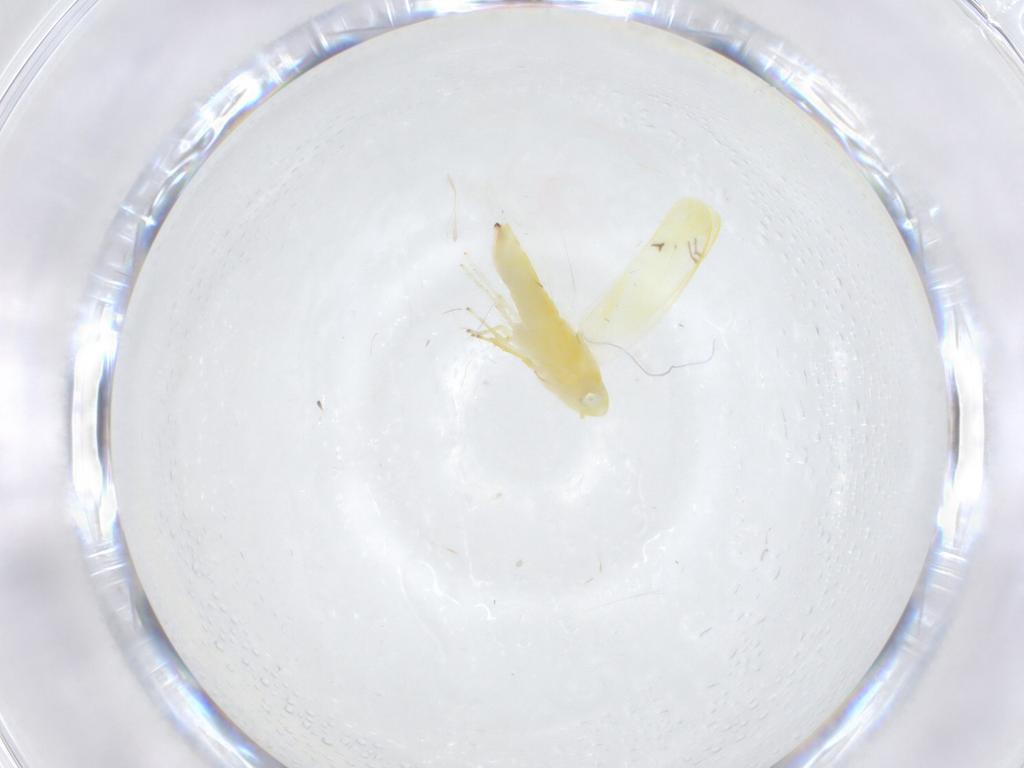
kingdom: Animalia
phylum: Arthropoda
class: Insecta
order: Hemiptera
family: Cicadellidae
